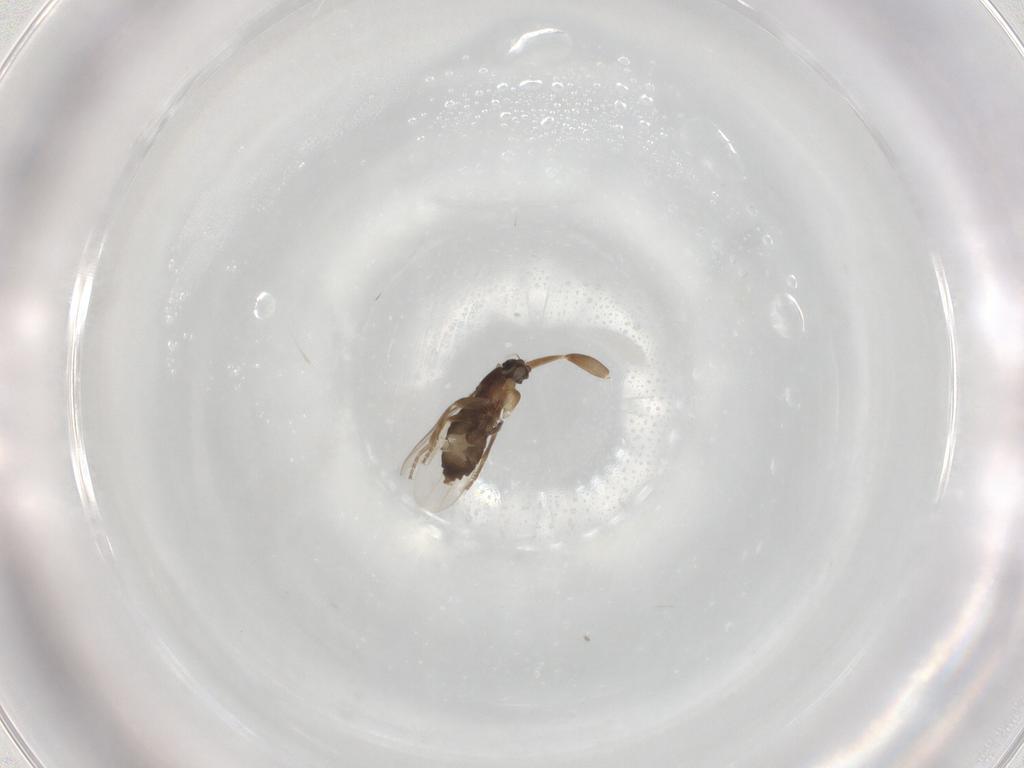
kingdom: Animalia
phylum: Arthropoda
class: Insecta
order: Diptera
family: Phoridae
